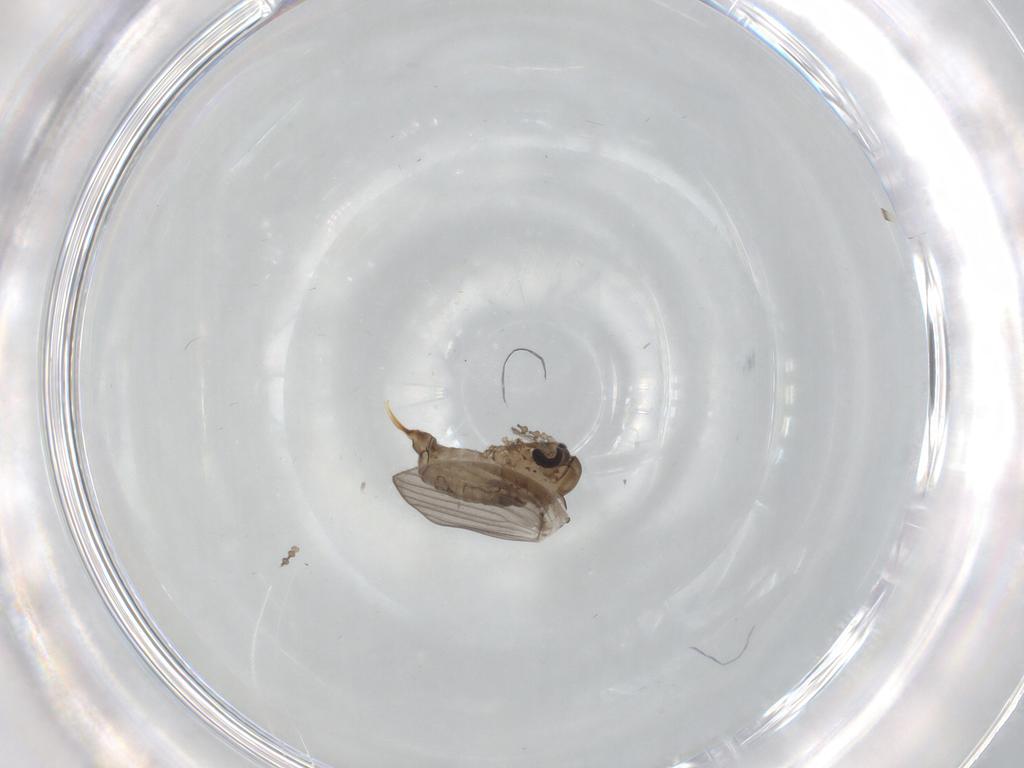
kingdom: Animalia
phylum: Arthropoda
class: Insecta
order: Diptera
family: Psychodidae
